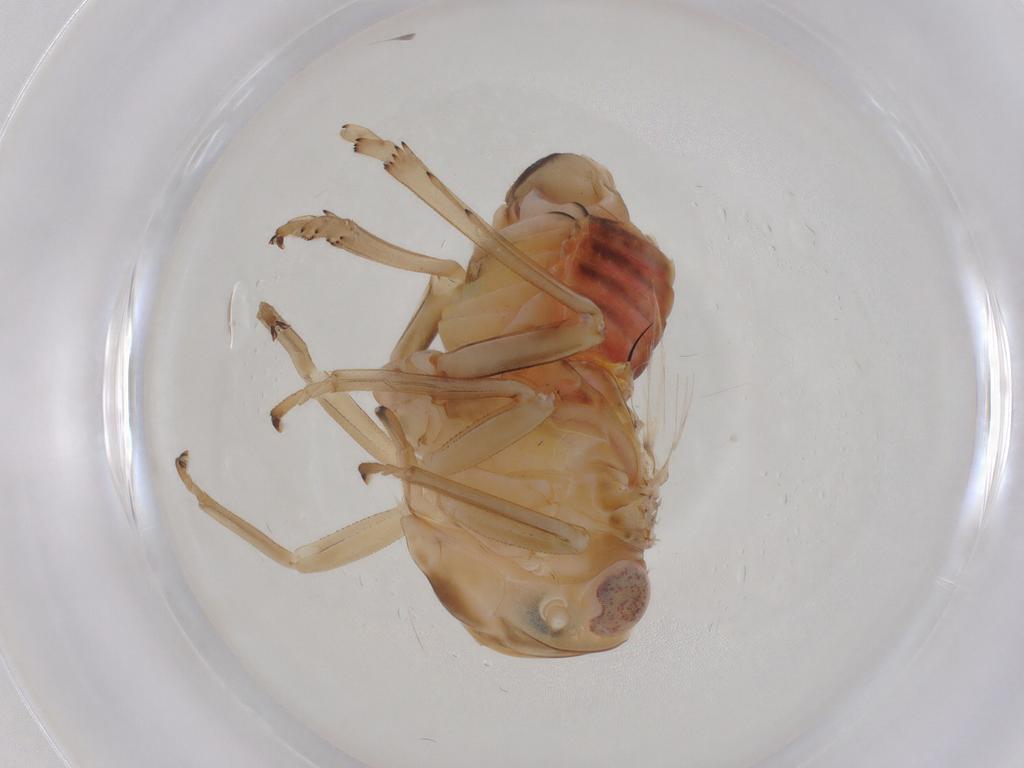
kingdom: Animalia
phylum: Arthropoda
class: Insecta
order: Hemiptera
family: Tropiduchidae
